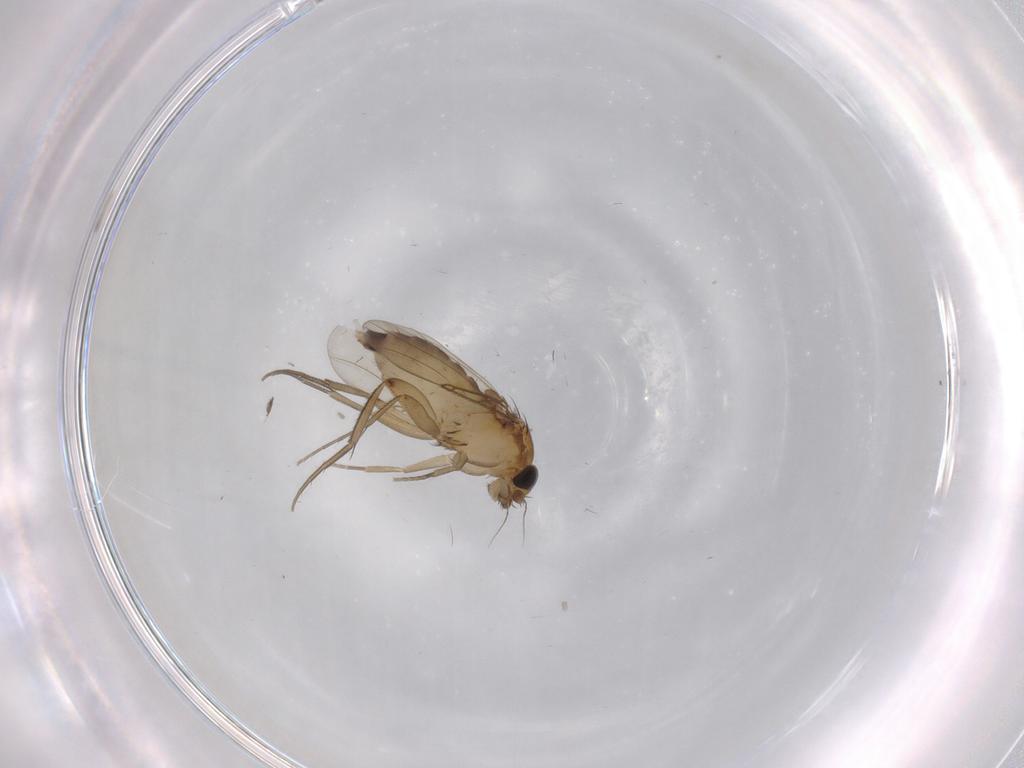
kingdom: Animalia
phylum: Arthropoda
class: Insecta
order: Diptera
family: Phoridae
